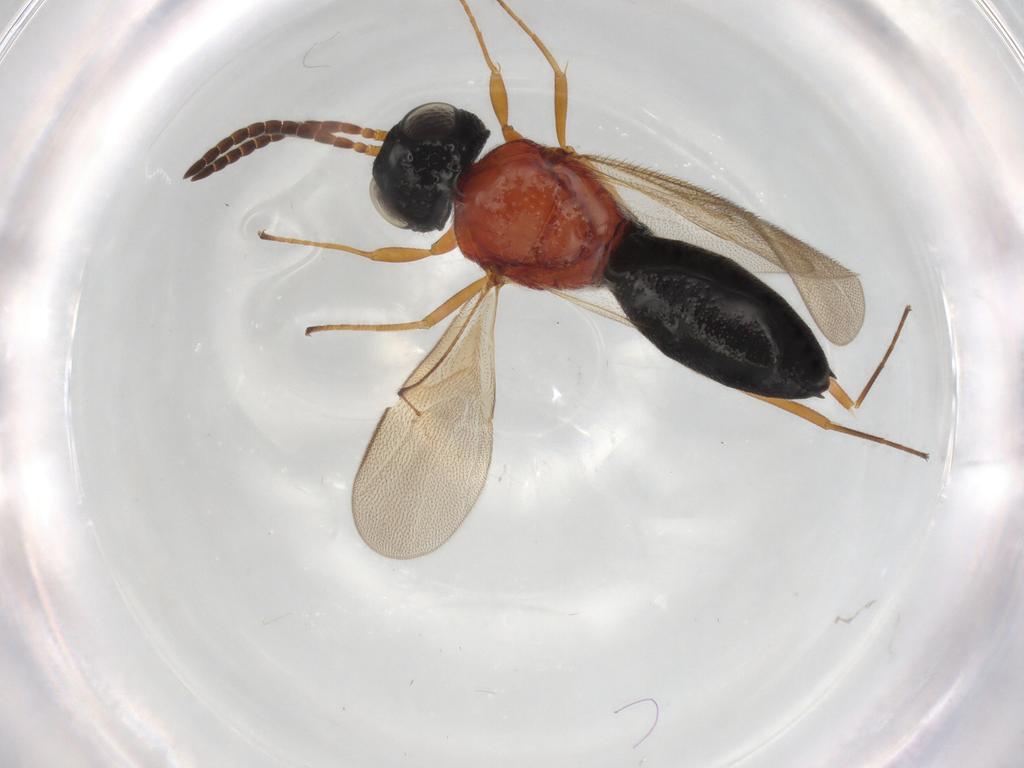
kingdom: Animalia
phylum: Arthropoda
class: Insecta
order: Hymenoptera
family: Scelionidae
